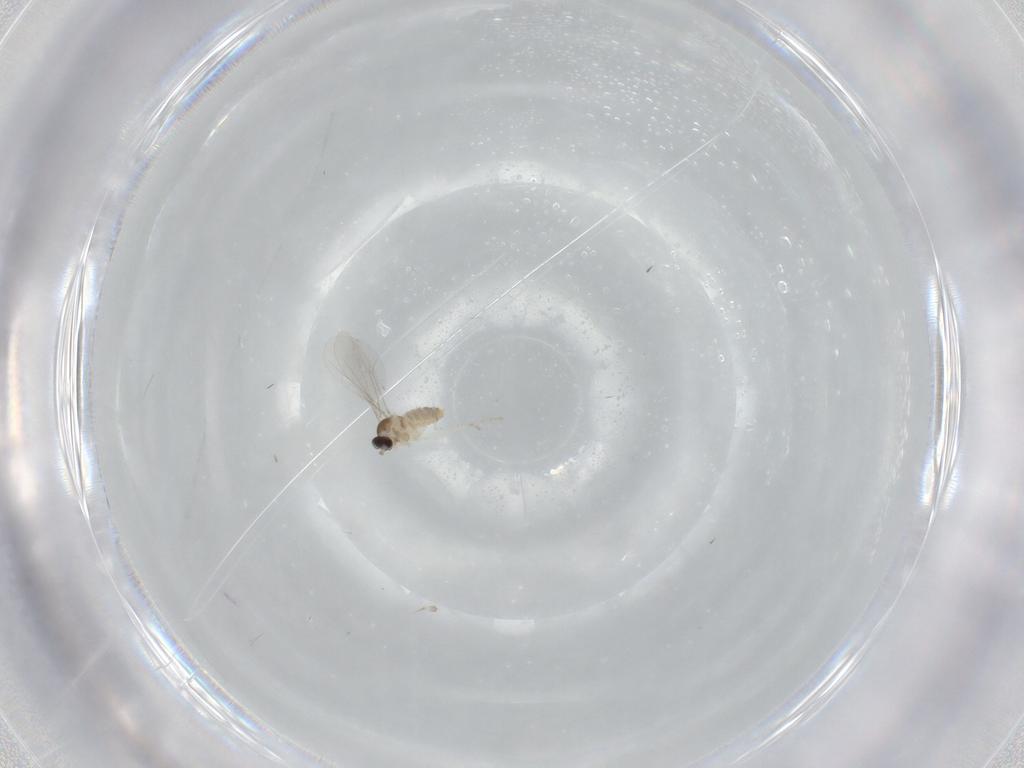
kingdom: Animalia
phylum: Arthropoda
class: Insecta
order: Diptera
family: Cecidomyiidae
